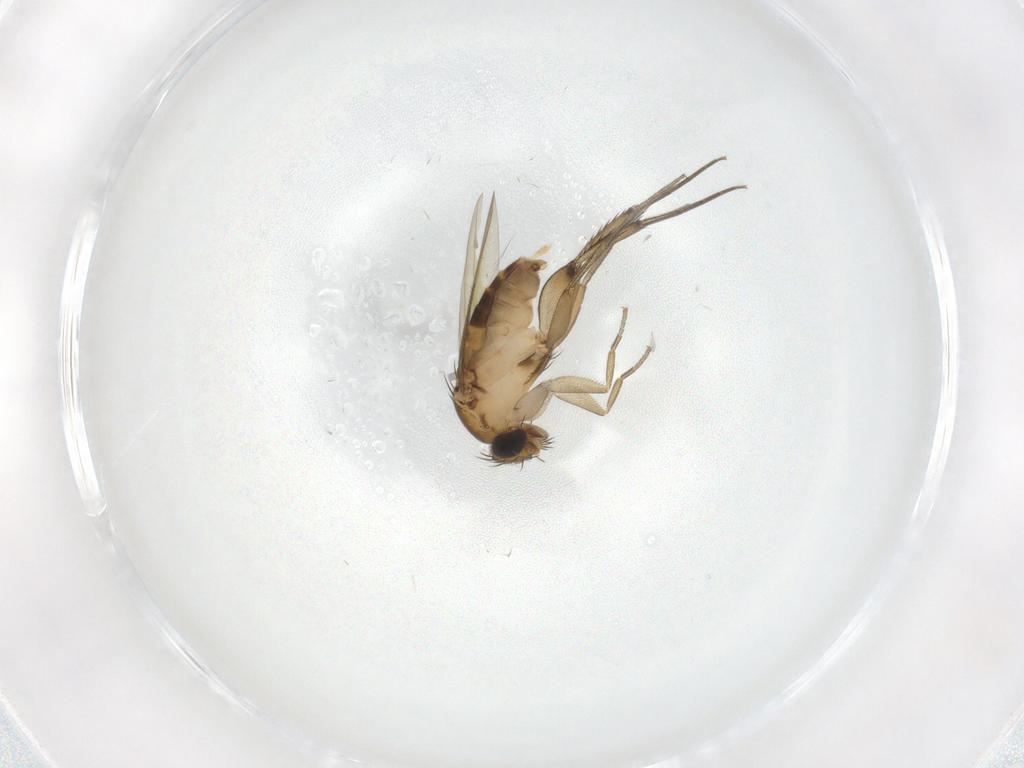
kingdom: Animalia
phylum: Arthropoda
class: Insecta
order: Diptera
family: Phoridae
